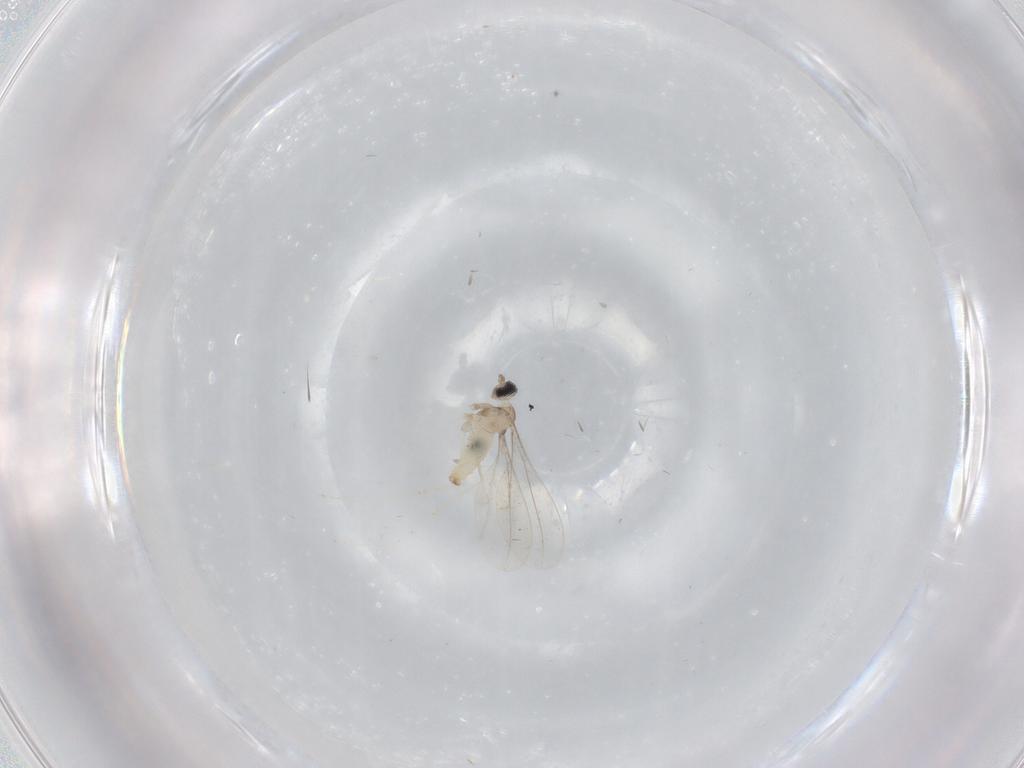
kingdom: Animalia
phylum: Arthropoda
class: Insecta
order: Diptera
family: Cecidomyiidae
